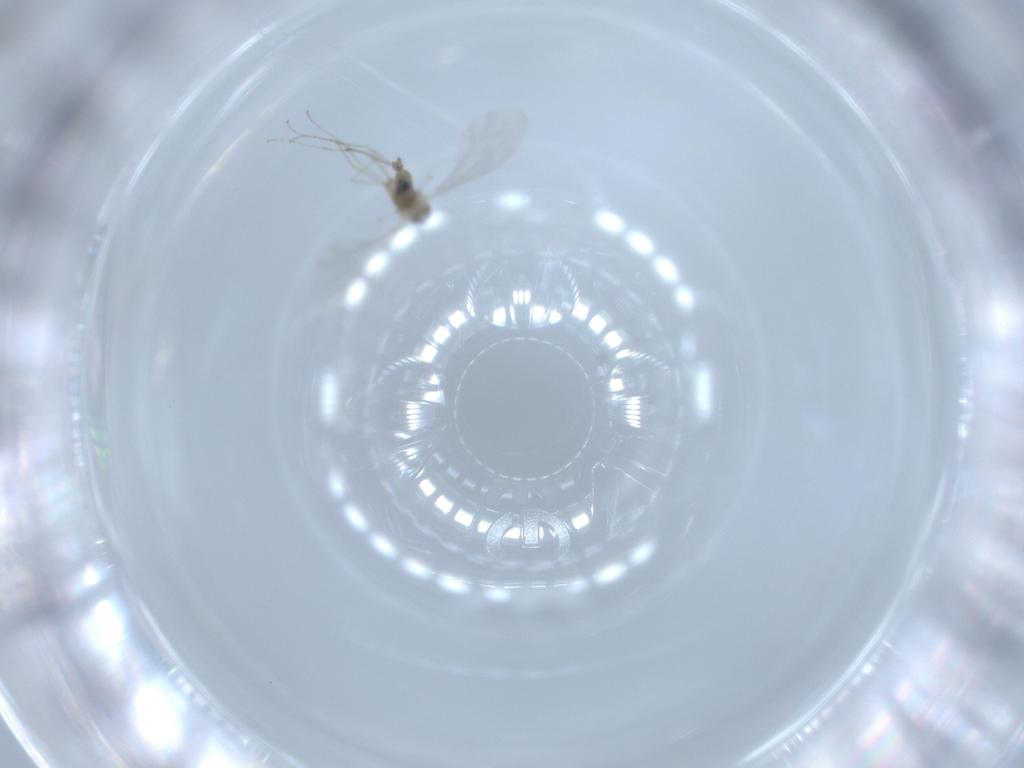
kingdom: Animalia
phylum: Arthropoda
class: Insecta
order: Diptera
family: Cecidomyiidae
